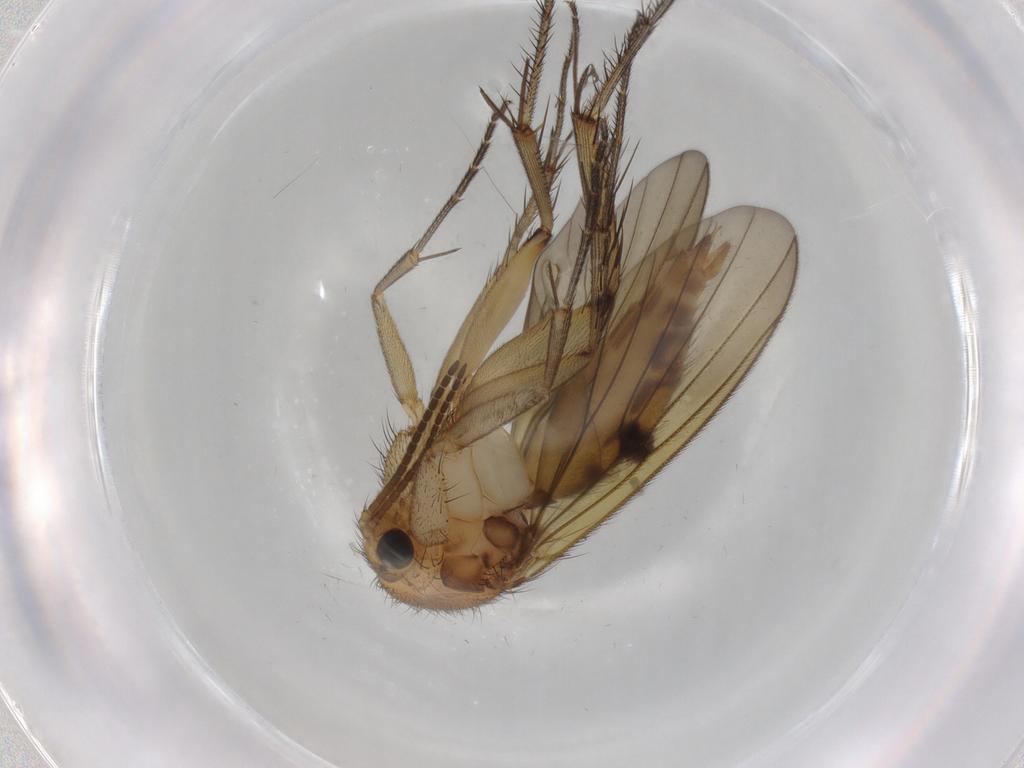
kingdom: Animalia
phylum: Arthropoda
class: Insecta
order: Diptera
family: Mycetophilidae
